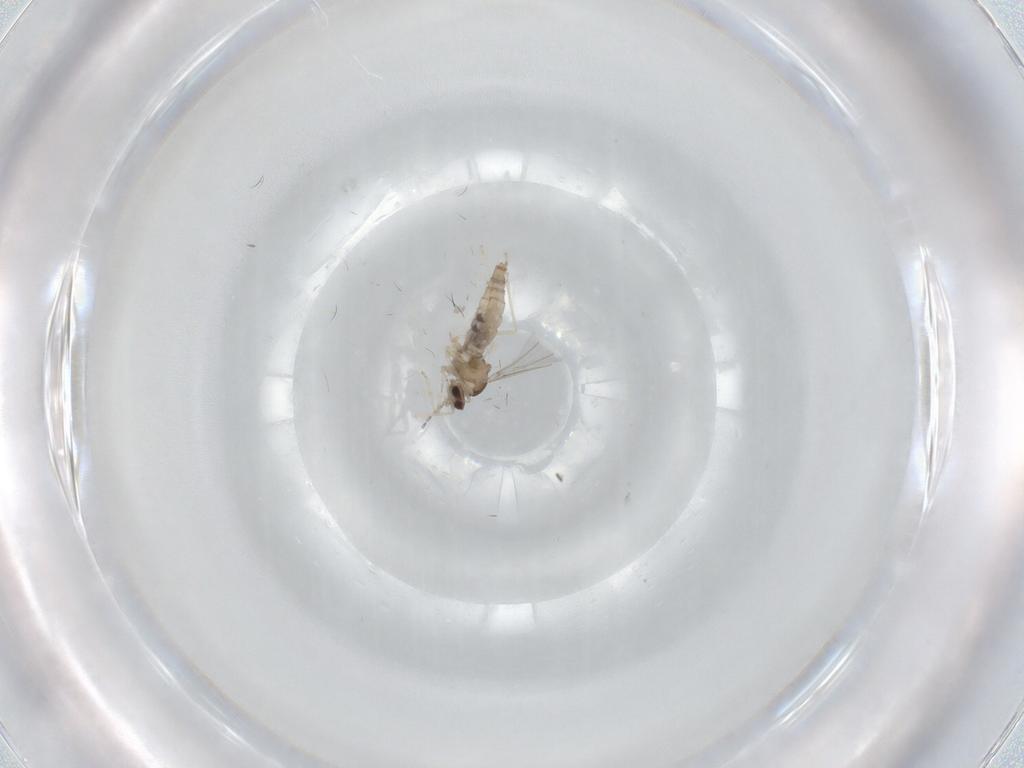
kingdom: Animalia
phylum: Arthropoda
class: Insecta
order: Diptera
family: Cecidomyiidae
